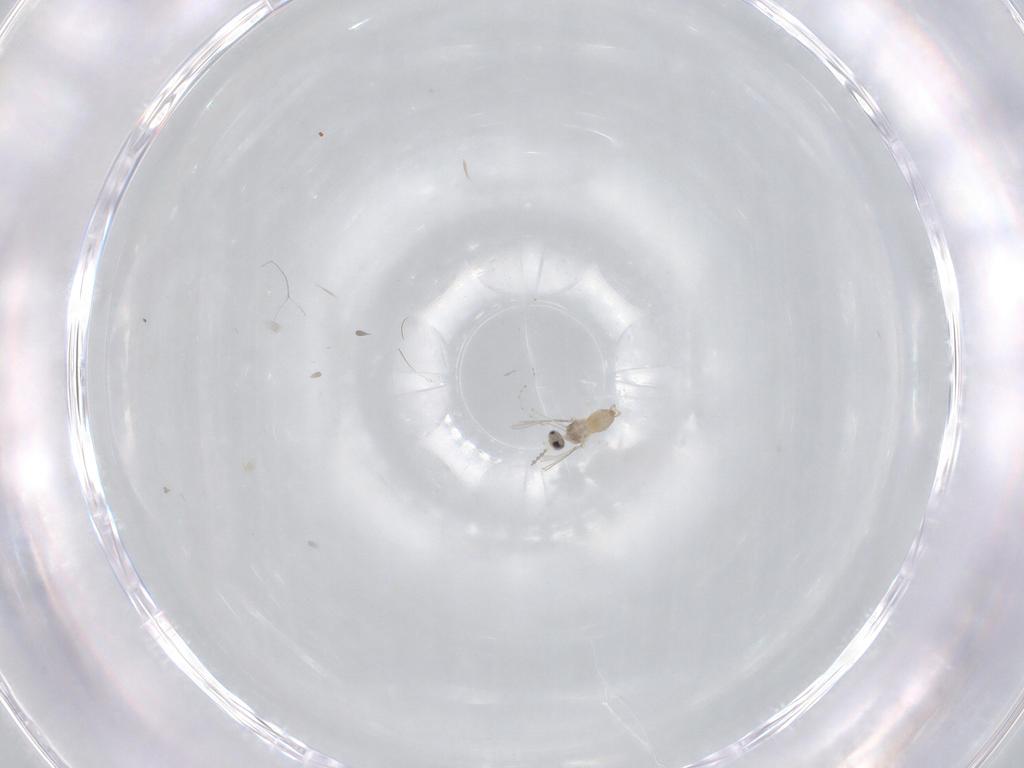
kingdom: Animalia
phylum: Arthropoda
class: Insecta
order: Diptera
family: Cecidomyiidae
